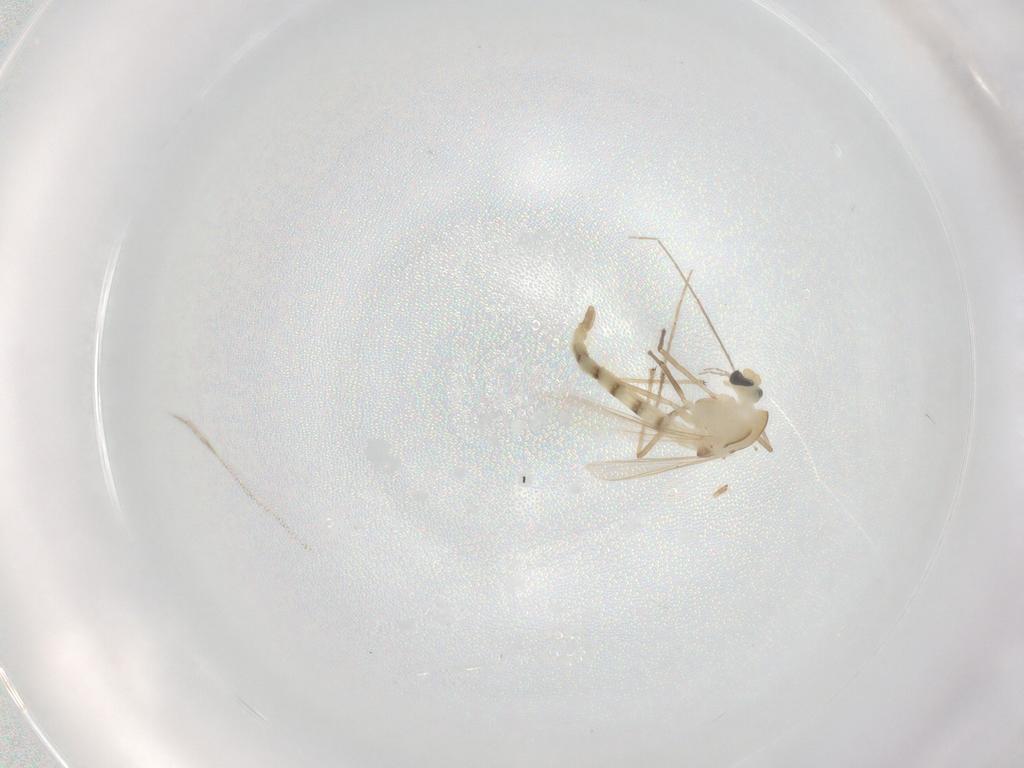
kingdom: Animalia
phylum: Arthropoda
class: Insecta
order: Diptera
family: Chironomidae
